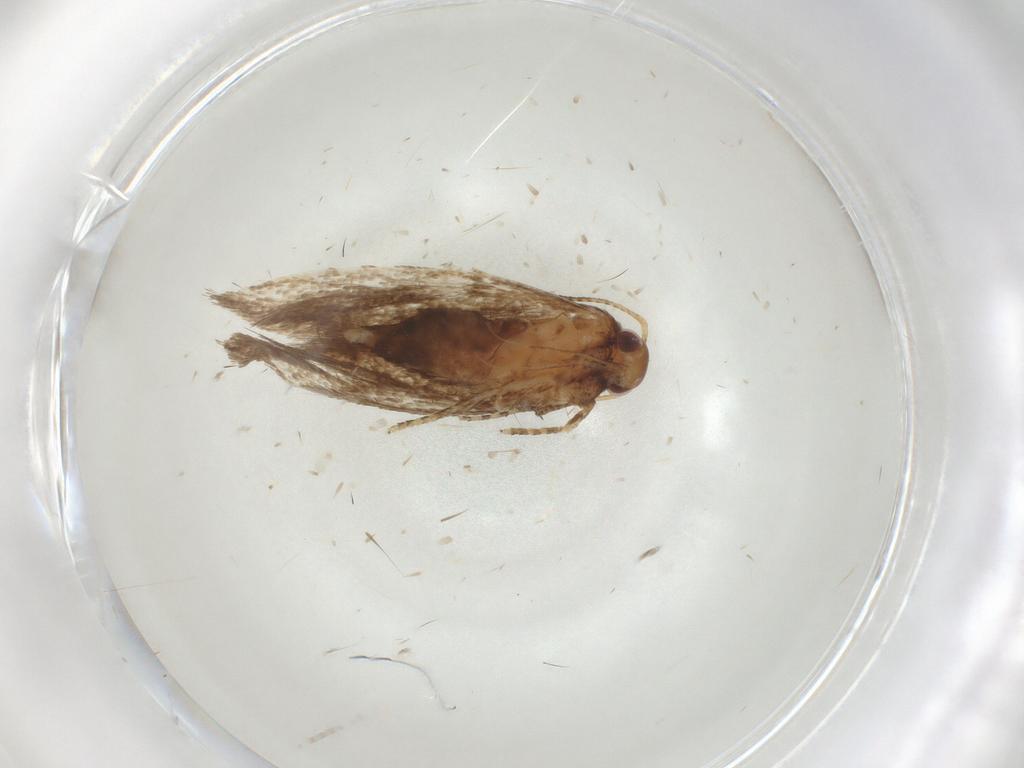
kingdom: Animalia
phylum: Arthropoda
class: Insecta
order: Lepidoptera
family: Oecophoridae
